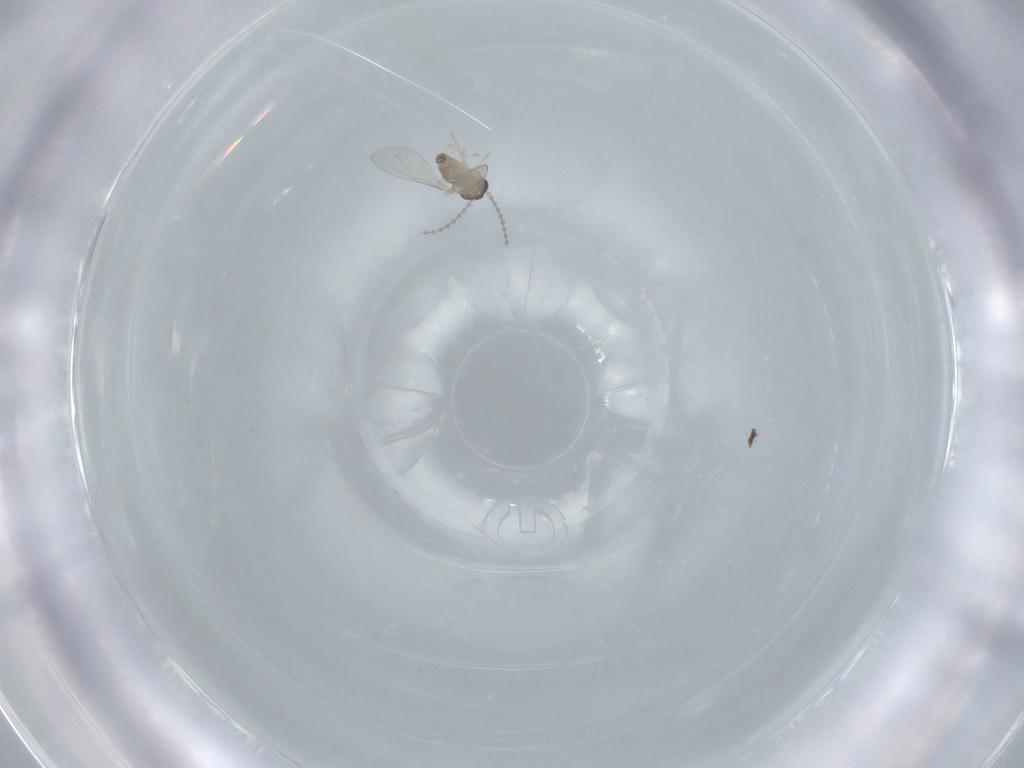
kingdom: Animalia
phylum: Arthropoda
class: Insecta
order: Diptera
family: Cecidomyiidae
